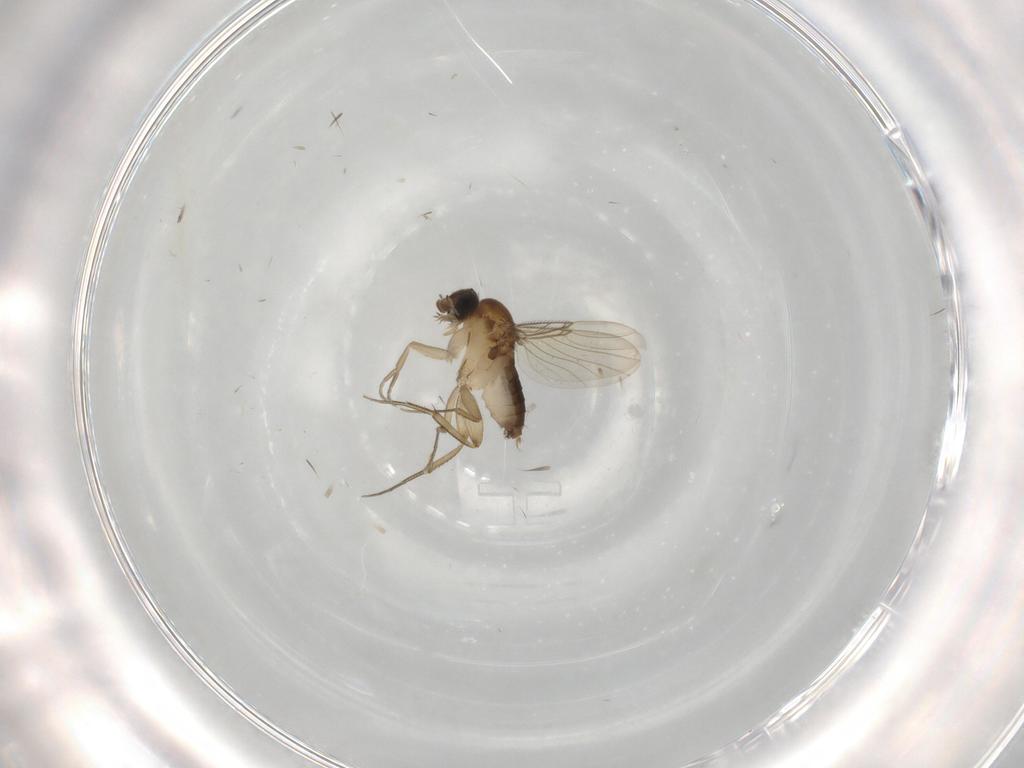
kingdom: Animalia
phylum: Arthropoda
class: Insecta
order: Diptera
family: Phoridae
